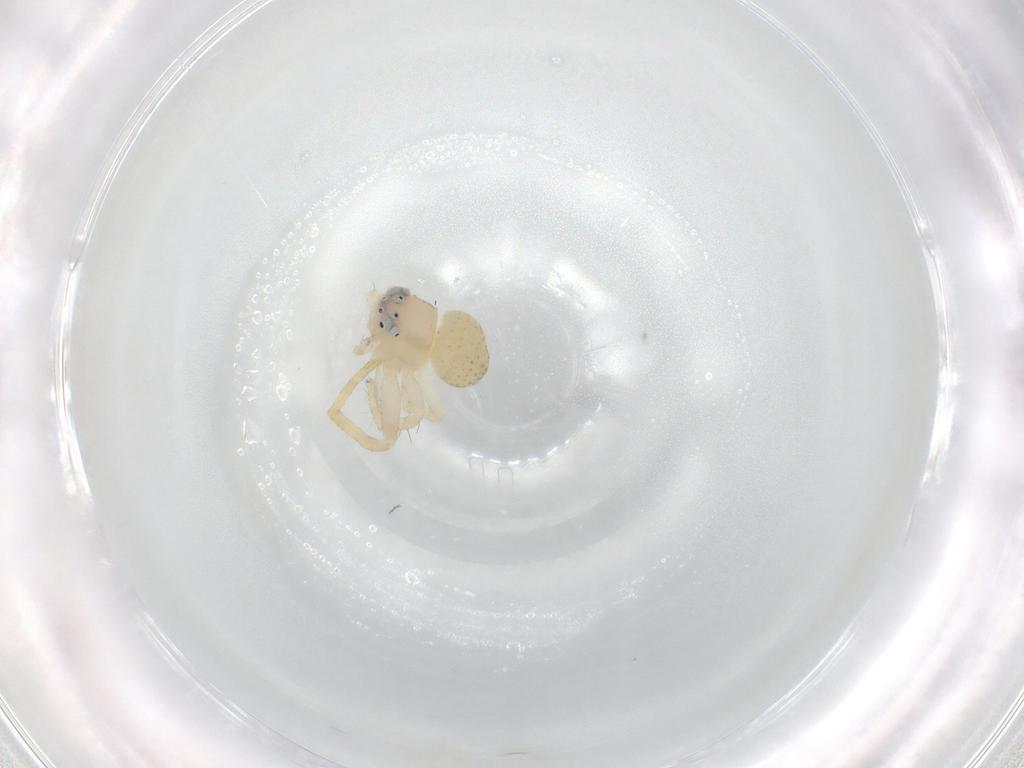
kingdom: Animalia
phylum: Arthropoda
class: Arachnida
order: Araneae
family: Thomisidae
